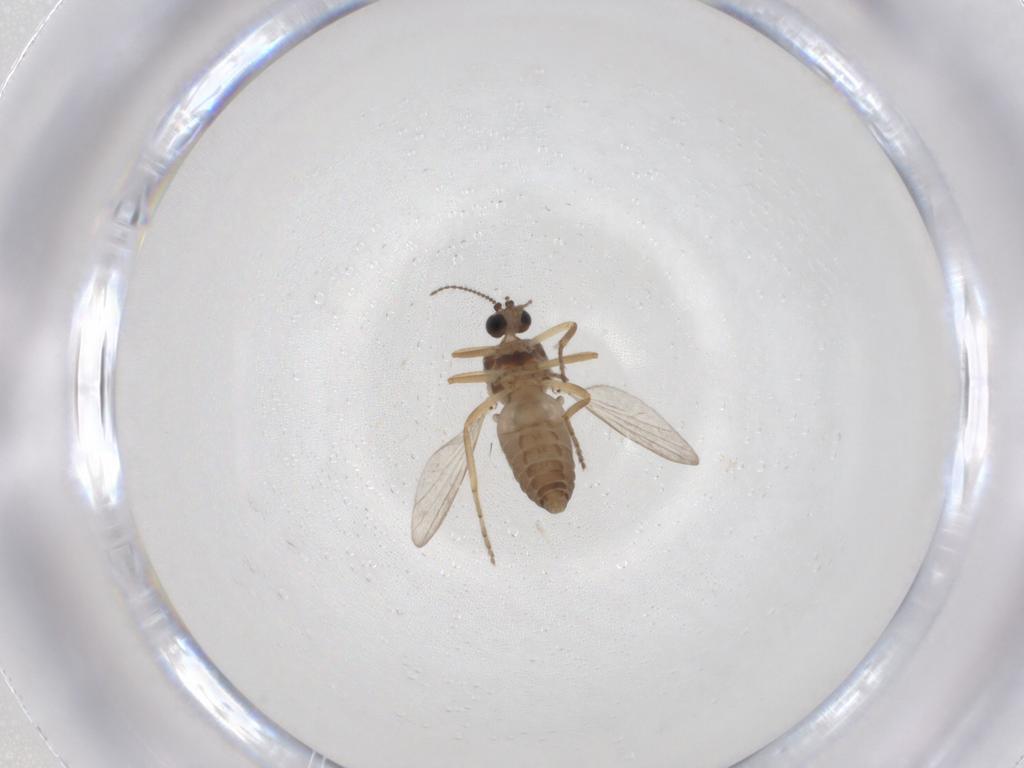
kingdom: Animalia
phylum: Arthropoda
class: Insecta
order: Diptera
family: Ceratopogonidae
